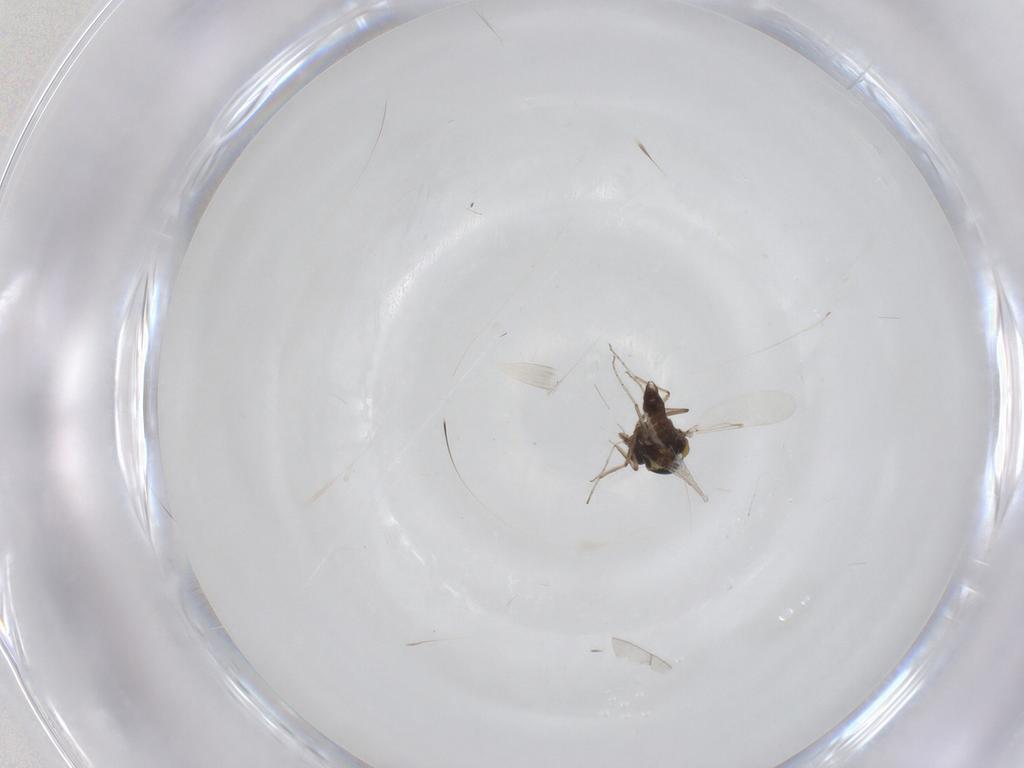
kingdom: Animalia
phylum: Arthropoda
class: Insecta
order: Diptera
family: Ceratopogonidae
